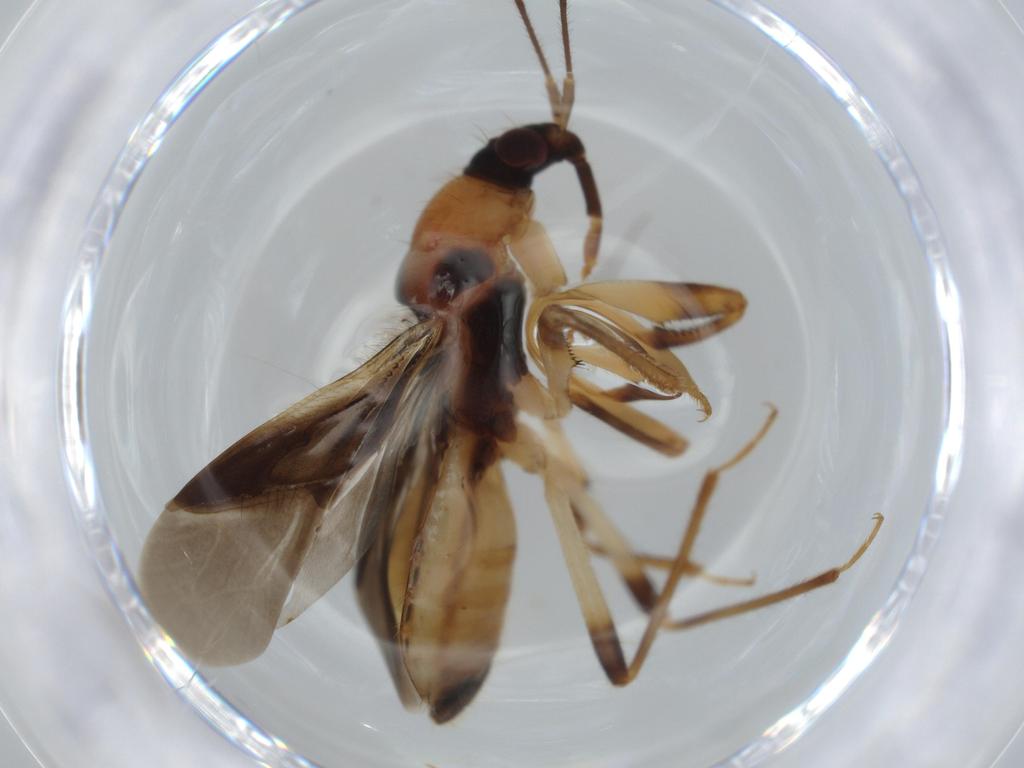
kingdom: Animalia
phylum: Arthropoda
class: Insecta
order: Hemiptera
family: Nabidae
